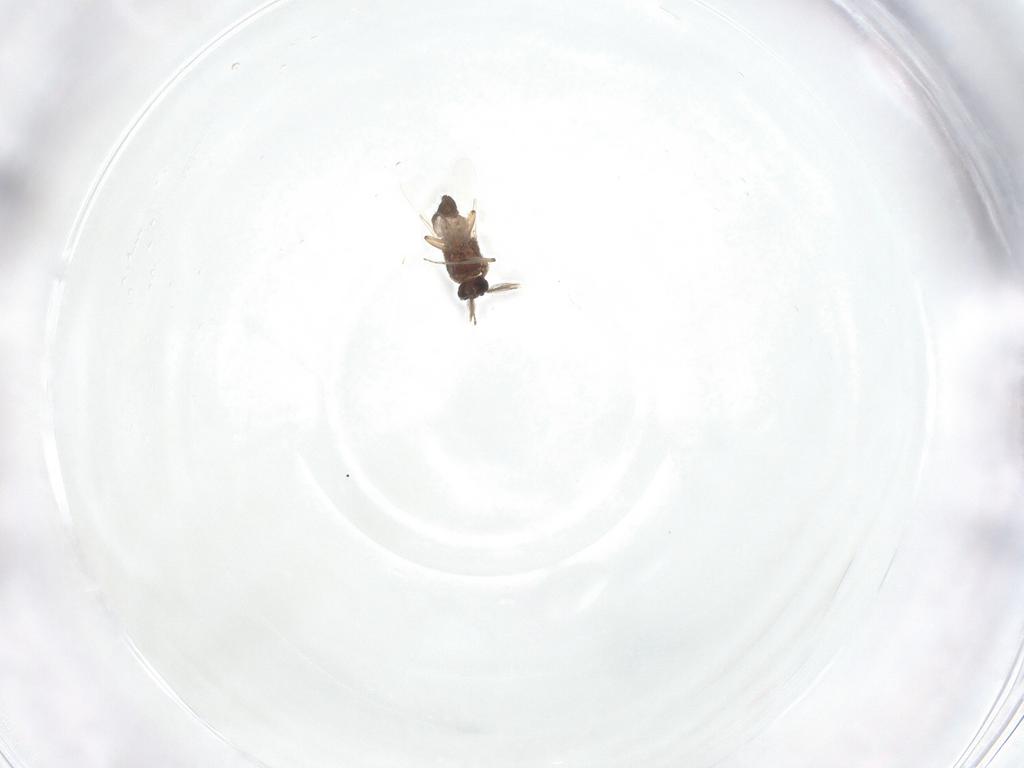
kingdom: Animalia
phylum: Arthropoda
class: Insecta
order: Diptera
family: Ceratopogonidae
